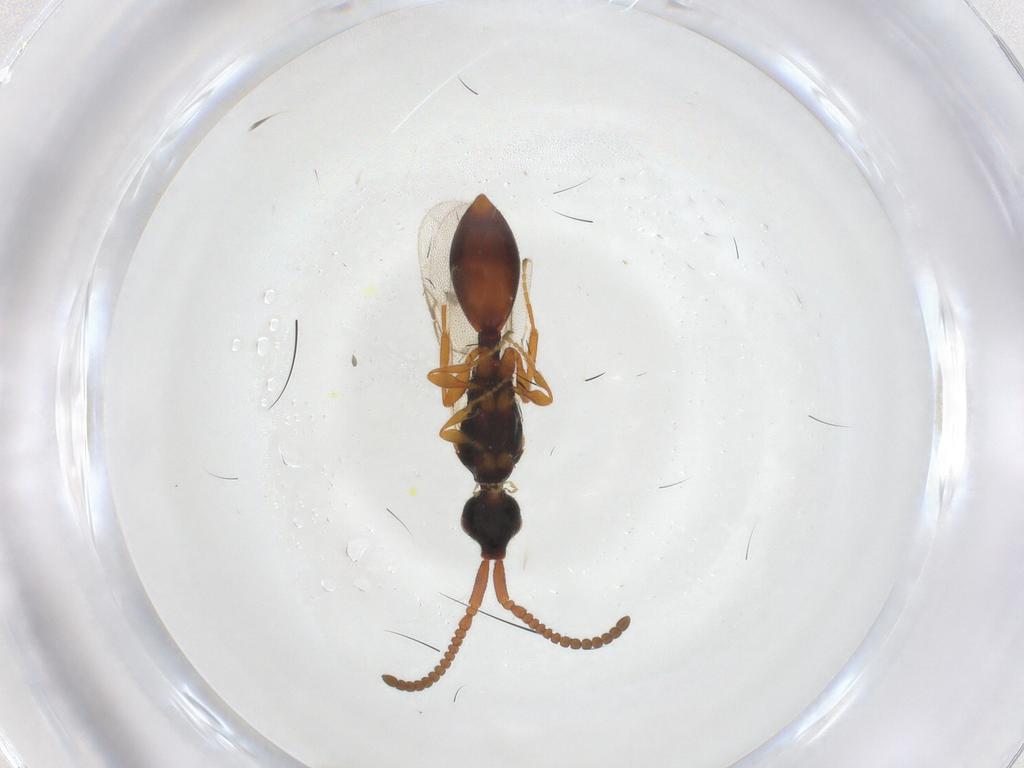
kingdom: Animalia
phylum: Arthropoda
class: Insecta
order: Hymenoptera
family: Diapriidae
